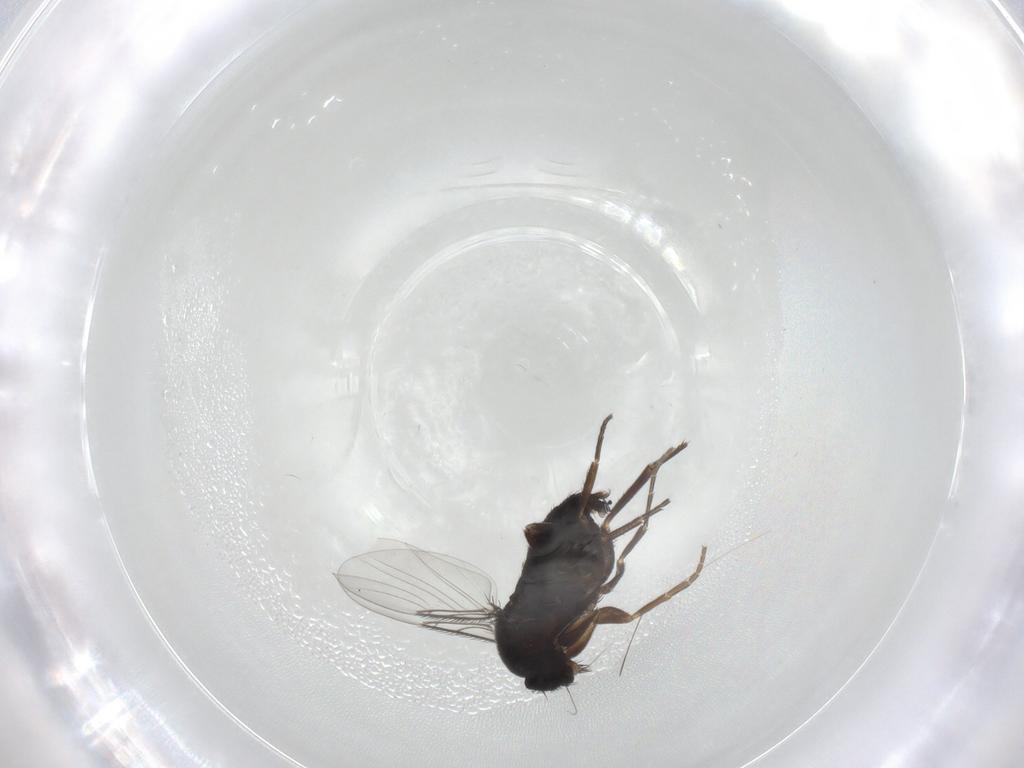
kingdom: Animalia
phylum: Arthropoda
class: Insecta
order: Diptera
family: Phoridae
